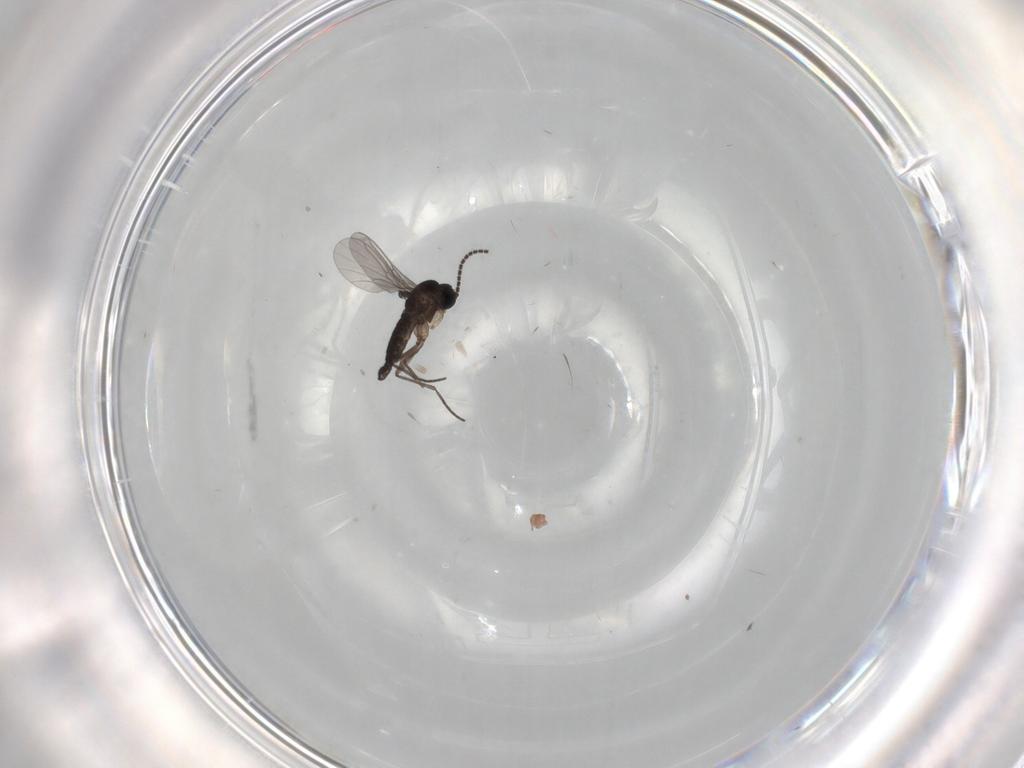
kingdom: Animalia
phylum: Arthropoda
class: Insecta
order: Diptera
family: Sciaridae
